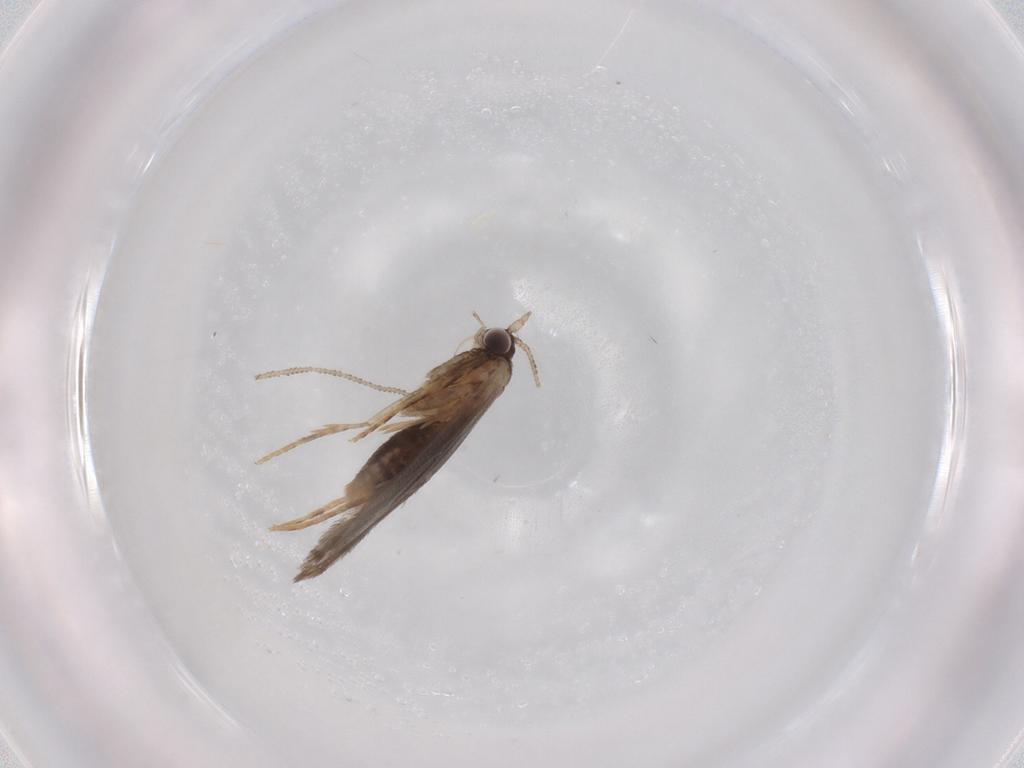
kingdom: Animalia
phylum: Arthropoda
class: Insecta
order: Lepidoptera
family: Tineidae
